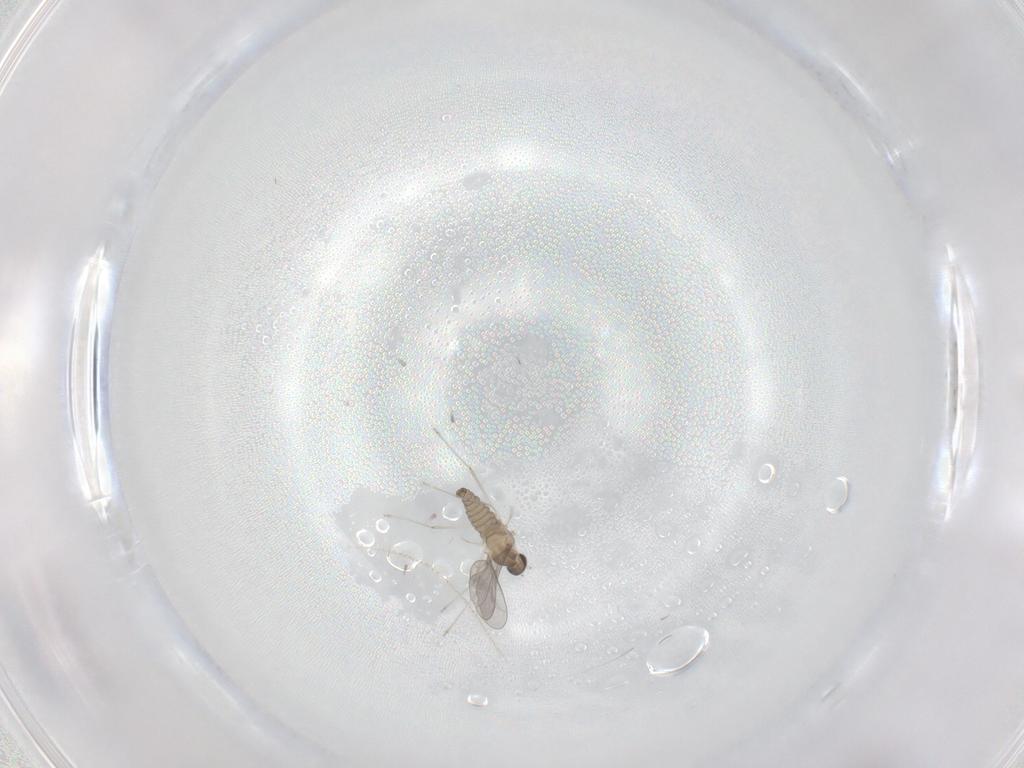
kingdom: Animalia
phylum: Arthropoda
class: Insecta
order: Diptera
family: Cecidomyiidae
